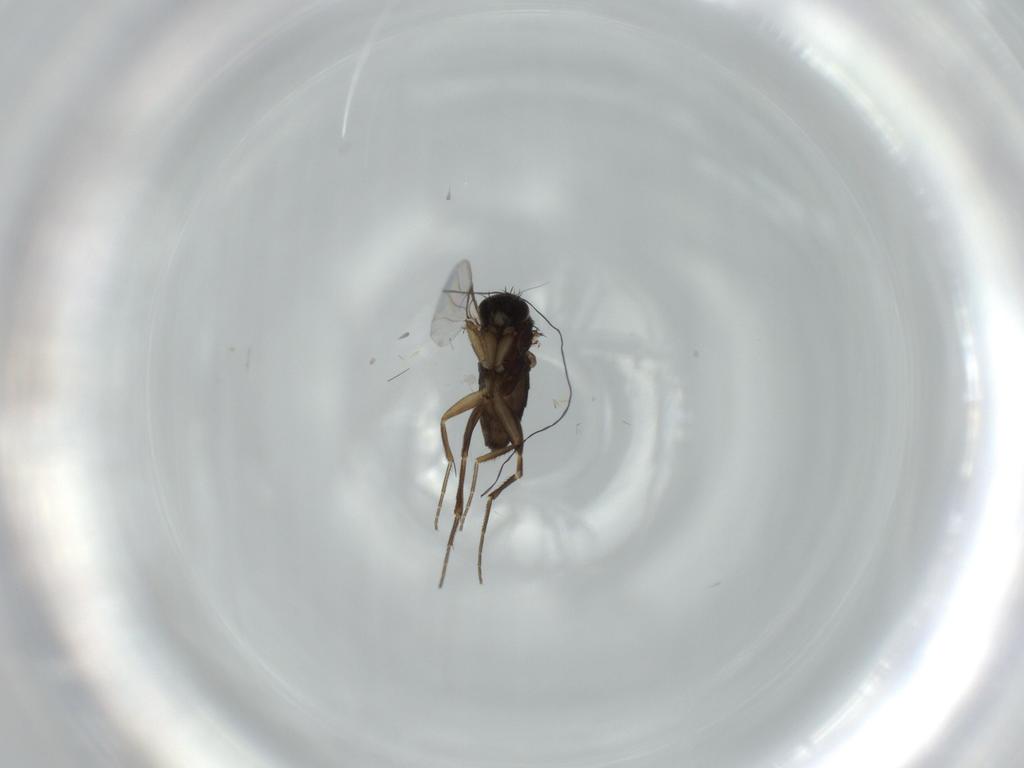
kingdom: Animalia
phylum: Arthropoda
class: Insecta
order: Diptera
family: Phoridae
